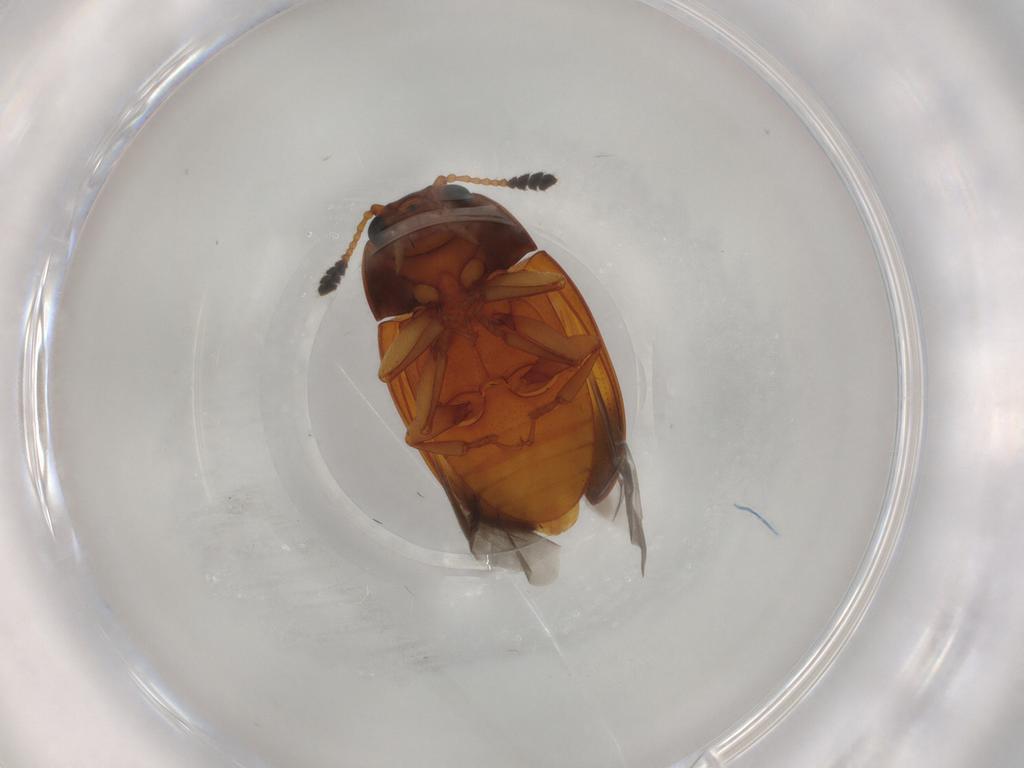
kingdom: Animalia
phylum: Arthropoda
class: Insecta
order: Coleoptera
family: Erotylidae
